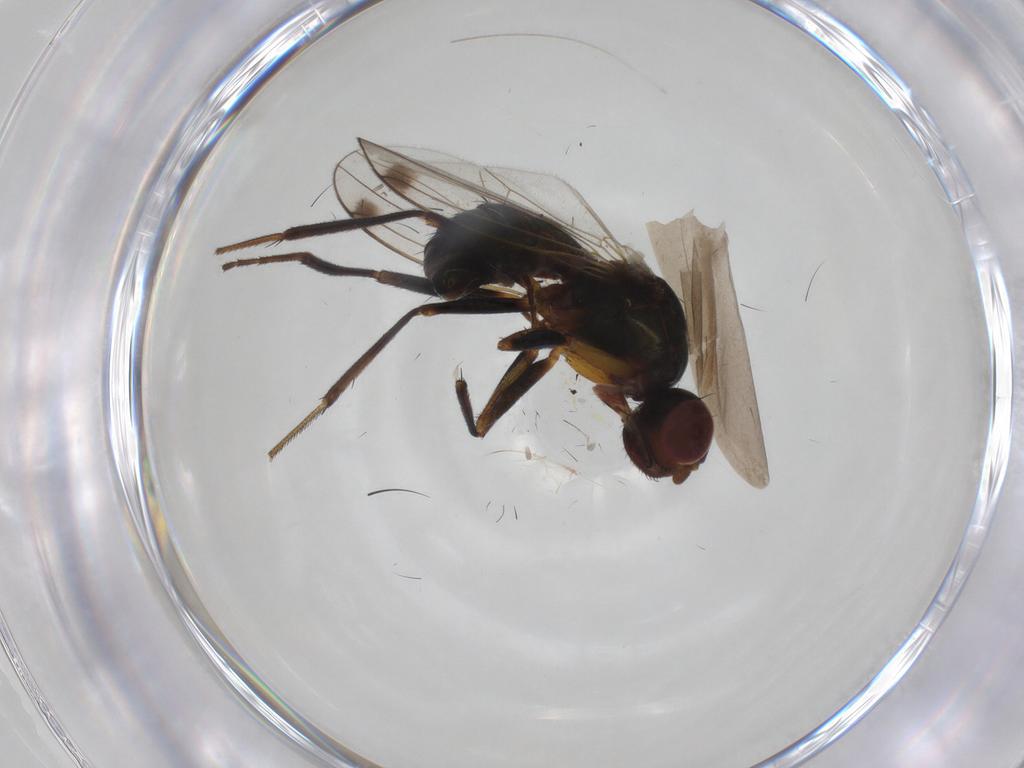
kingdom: Animalia
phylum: Arthropoda
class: Insecta
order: Diptera
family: Sepsidae
